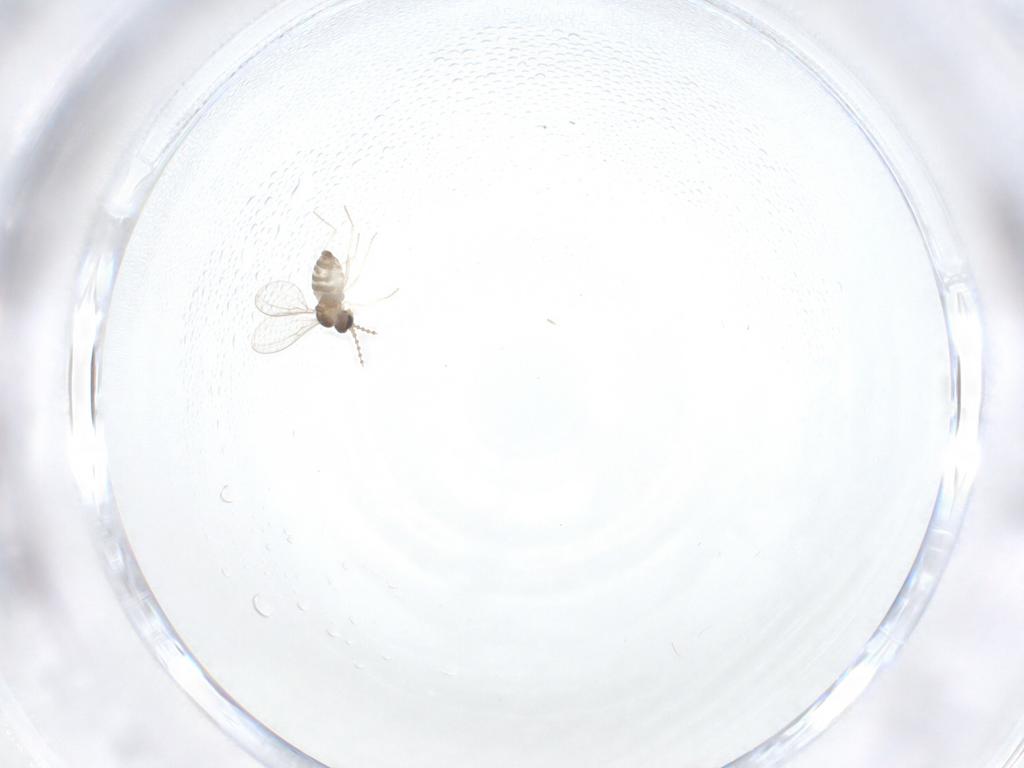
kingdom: Animalia
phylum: Arthropoda
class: Insecta
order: Diptera
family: Cecidomyiidae
